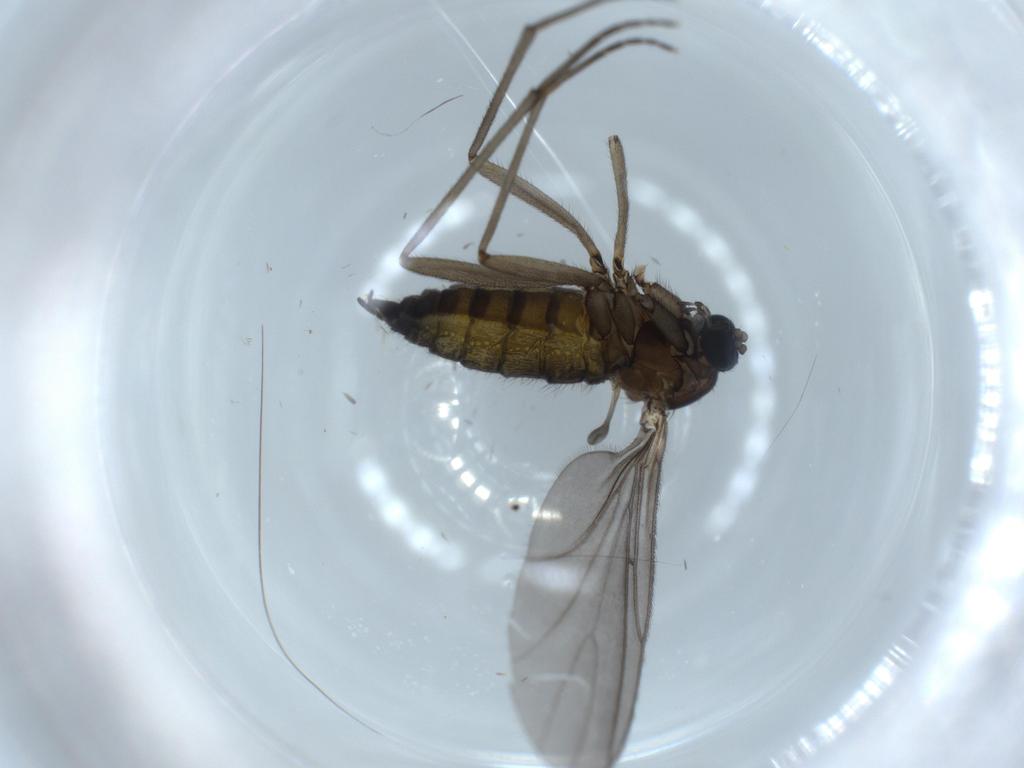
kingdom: Animalia
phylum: Arthropoda
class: Insecta
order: Diptera
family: Sciaridae
